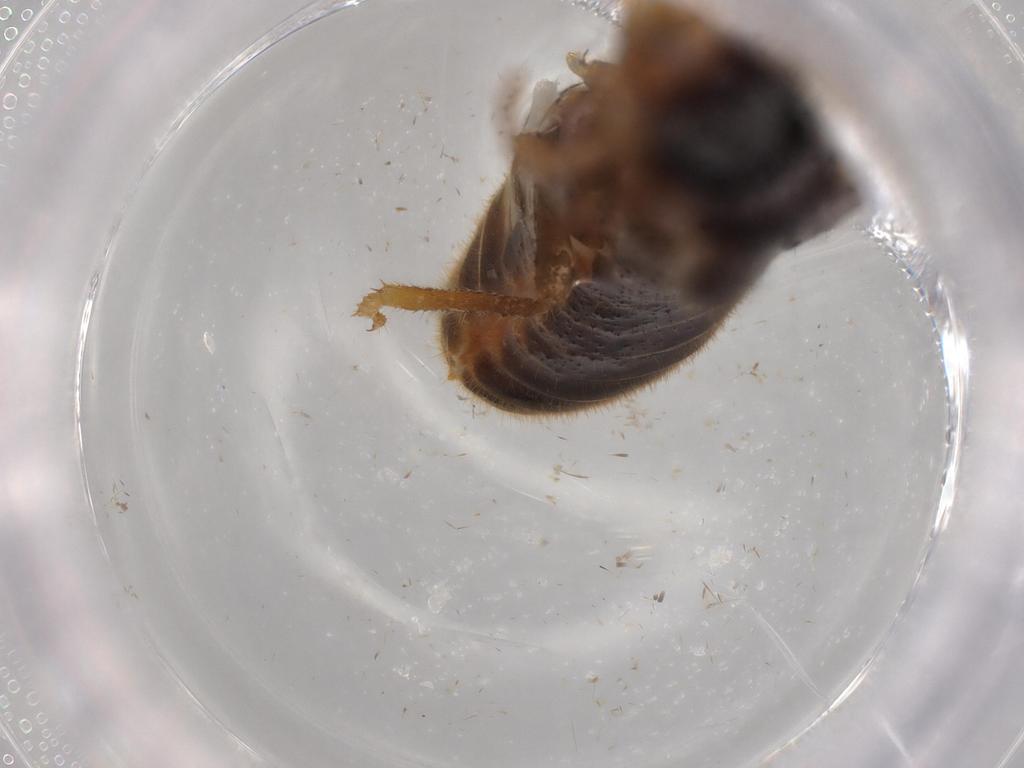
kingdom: Animalia
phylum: Arthropoda
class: Insecta
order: Blattodea
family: Termitidae
